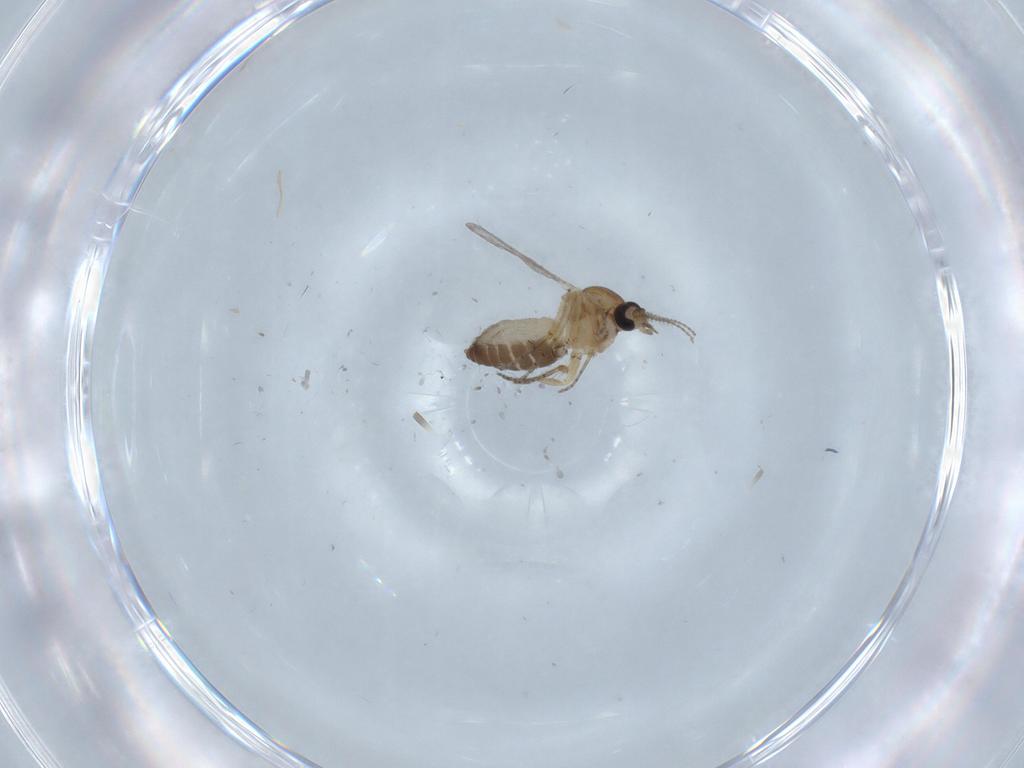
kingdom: Animalia
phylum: Arthropoda
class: Insecta
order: Diptera
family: Ceratopogonidae
